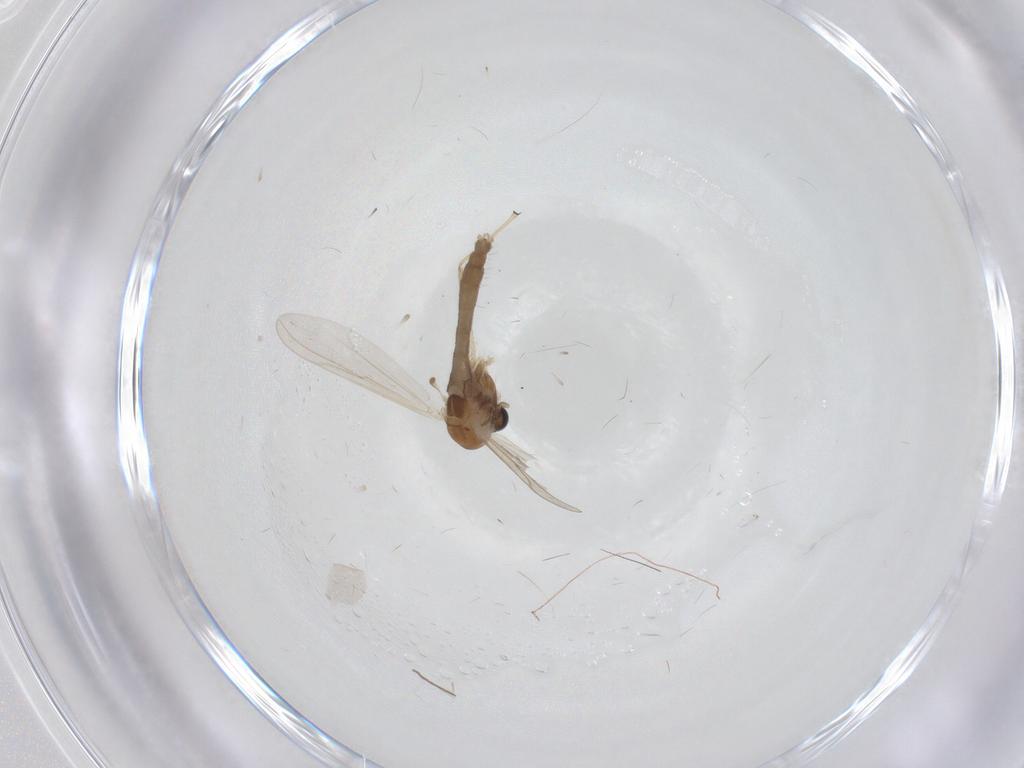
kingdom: Animalia
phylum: Arthropoda
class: Insecta
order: Diptera
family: Chironomidae
